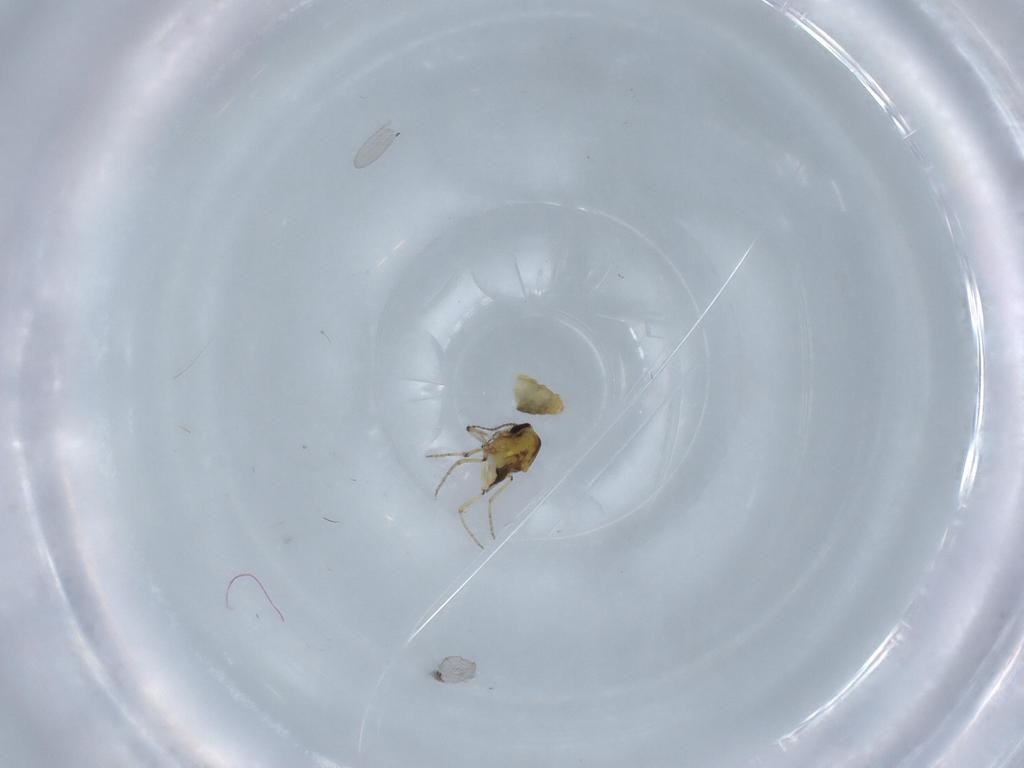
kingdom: Animalia
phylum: Arthropoda
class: Insecta
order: Diptera
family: Ceratopogonidae
